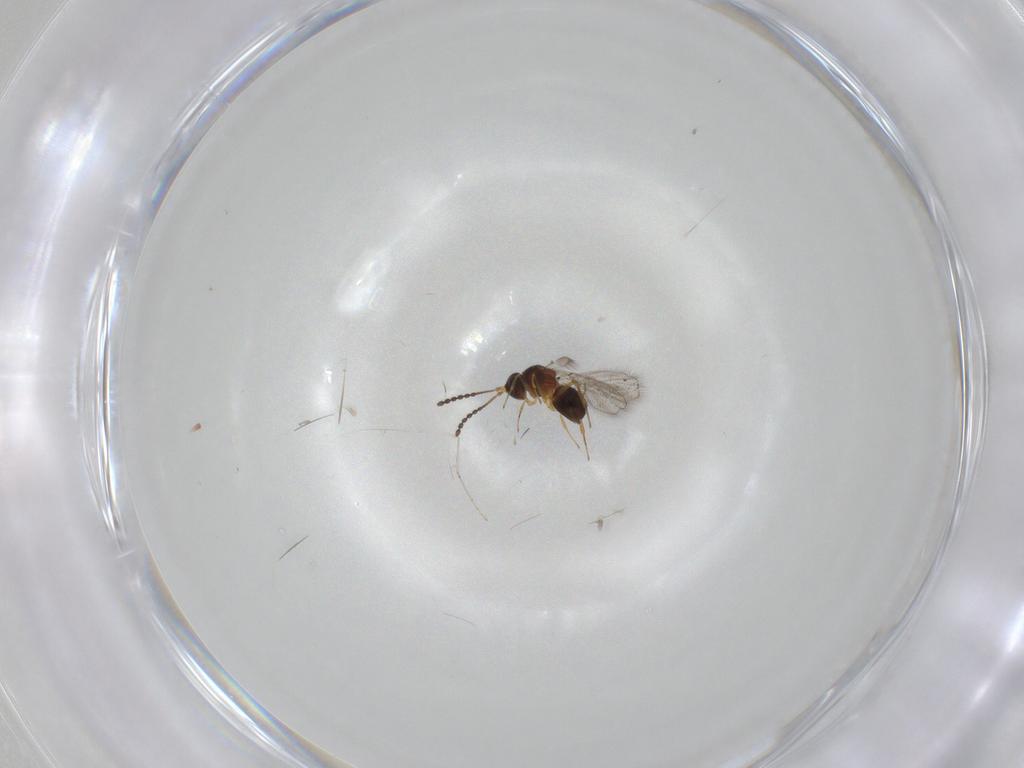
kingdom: Animalia
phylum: Arthropoda
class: Insecta
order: Hymenoptera
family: Figitidae
